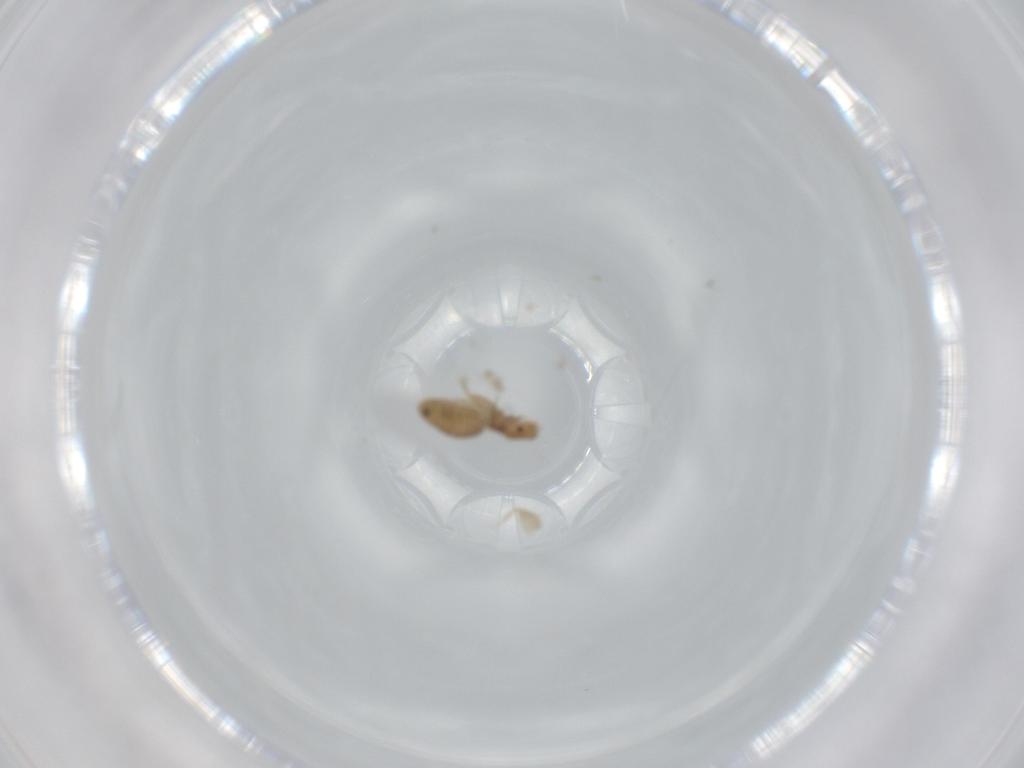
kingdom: Animalia
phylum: Arthropoda
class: Insecta
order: Psocodea
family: Liposcelididae
